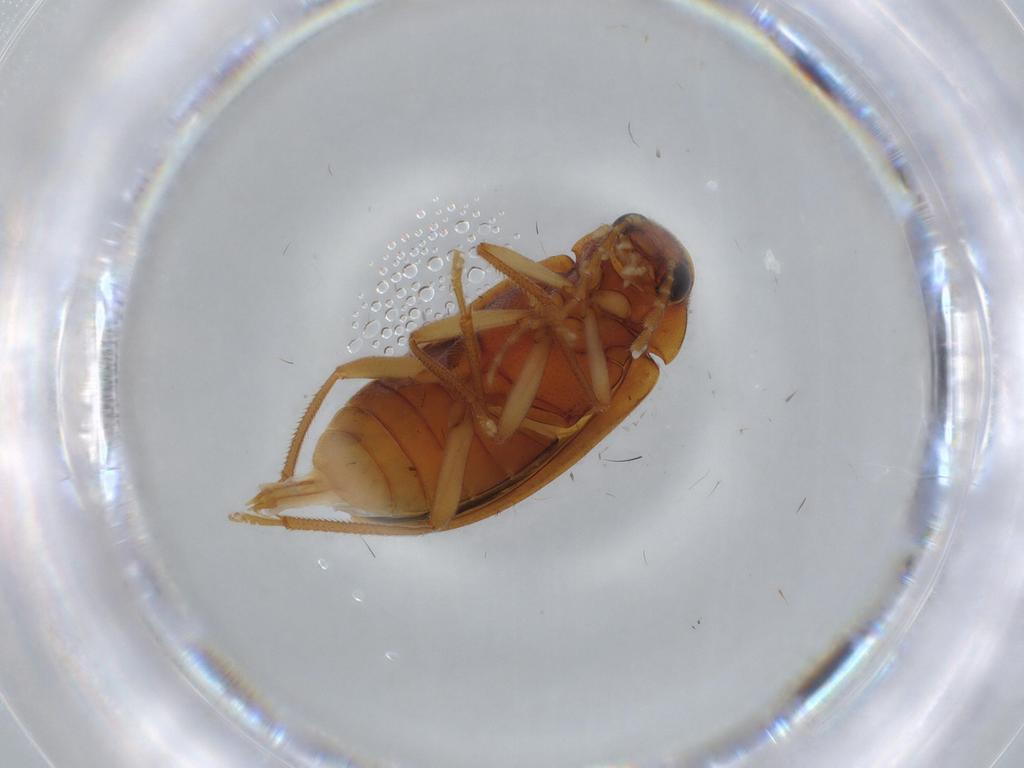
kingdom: Animalia
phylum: Arthropoda
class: Insecta
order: Coleoptera
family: Ptilodactylidae
